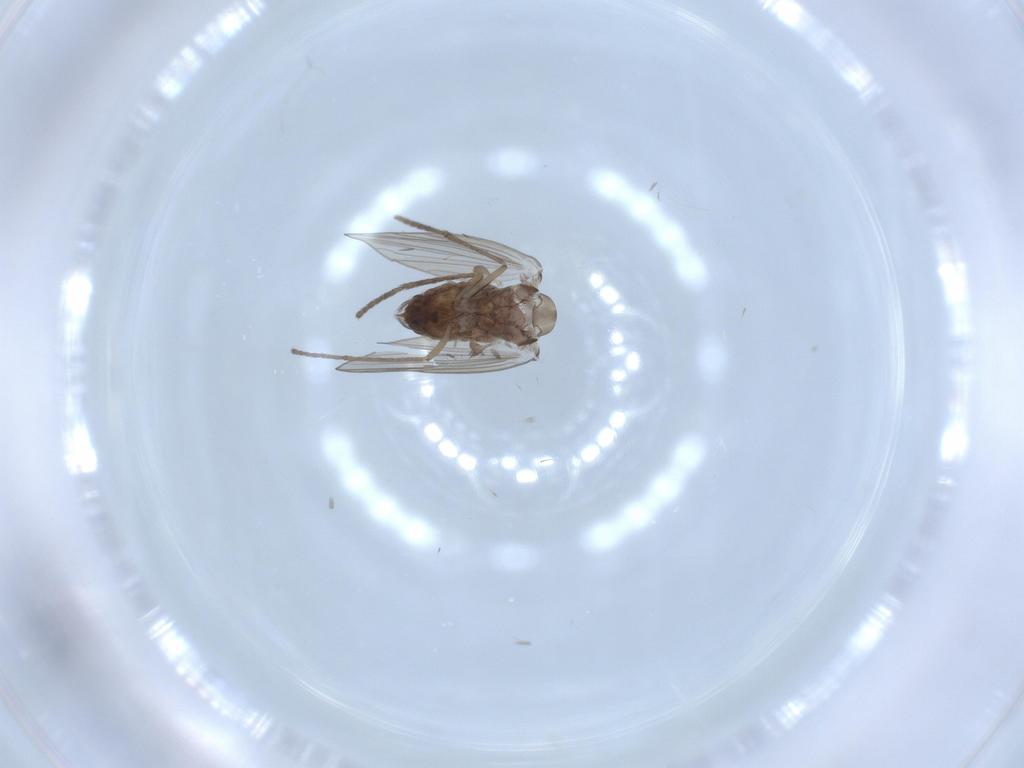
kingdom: Animalia
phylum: Arthropoda
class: Insecta
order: Diptera
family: Psychodidae
